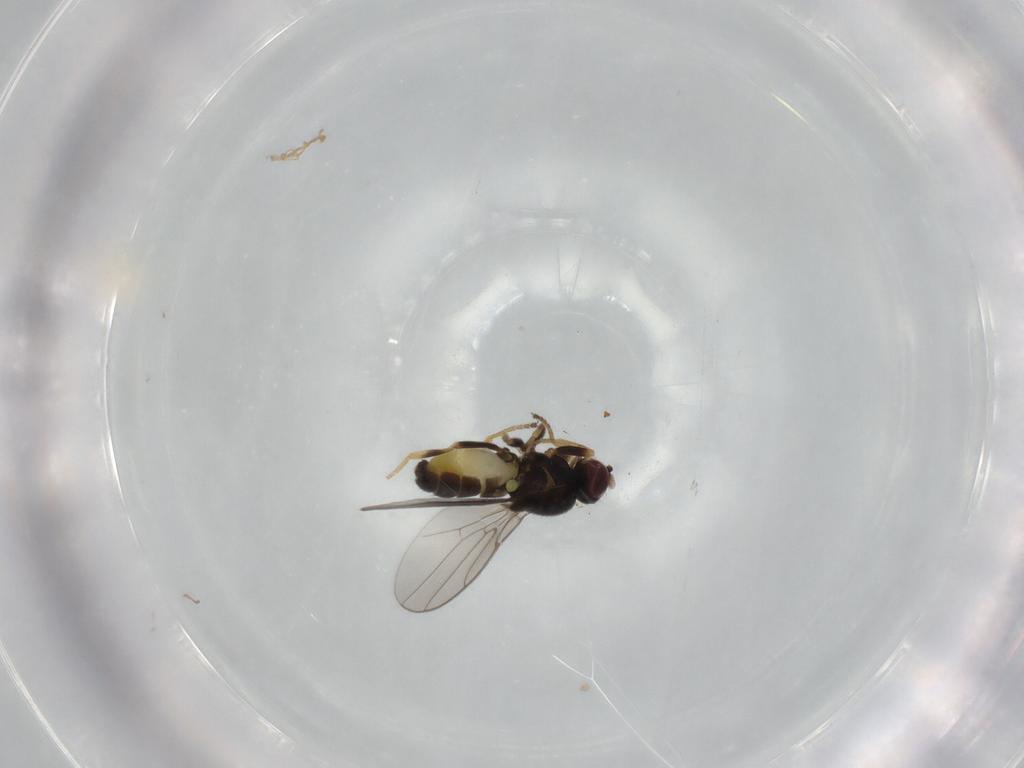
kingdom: Animalia
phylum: Arthropoda
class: Insecta
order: Diptera
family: Chloropidae
